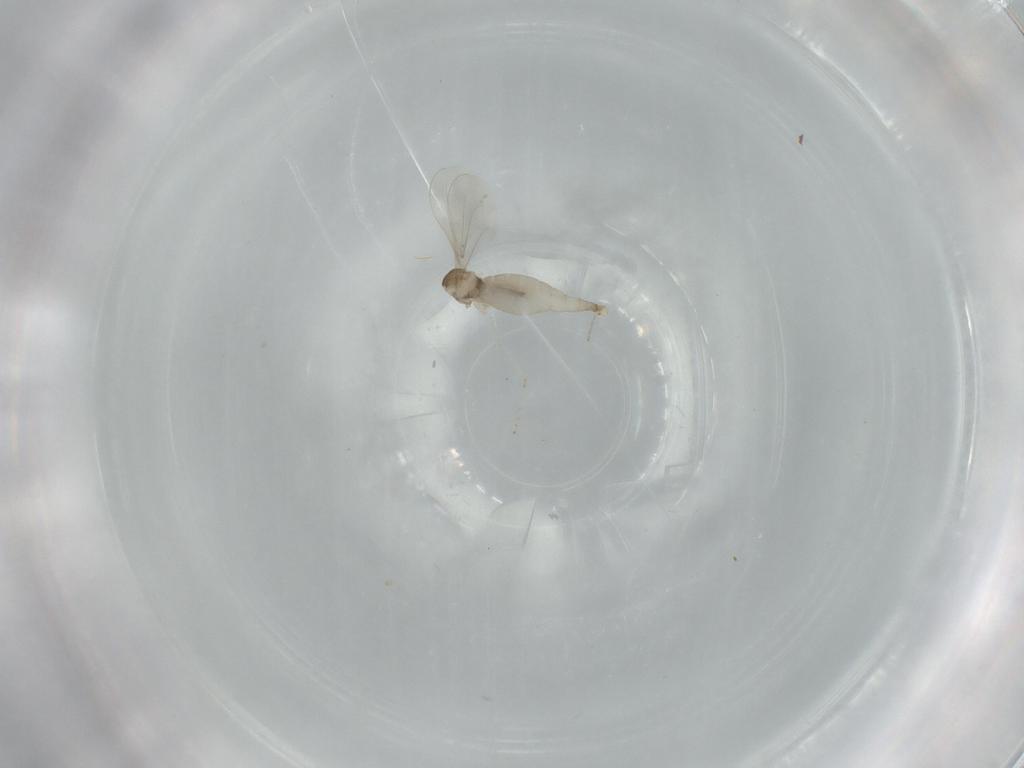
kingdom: Animalia
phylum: Arthropoda
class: Insecta
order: Diptera
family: Cecidomyiidae
